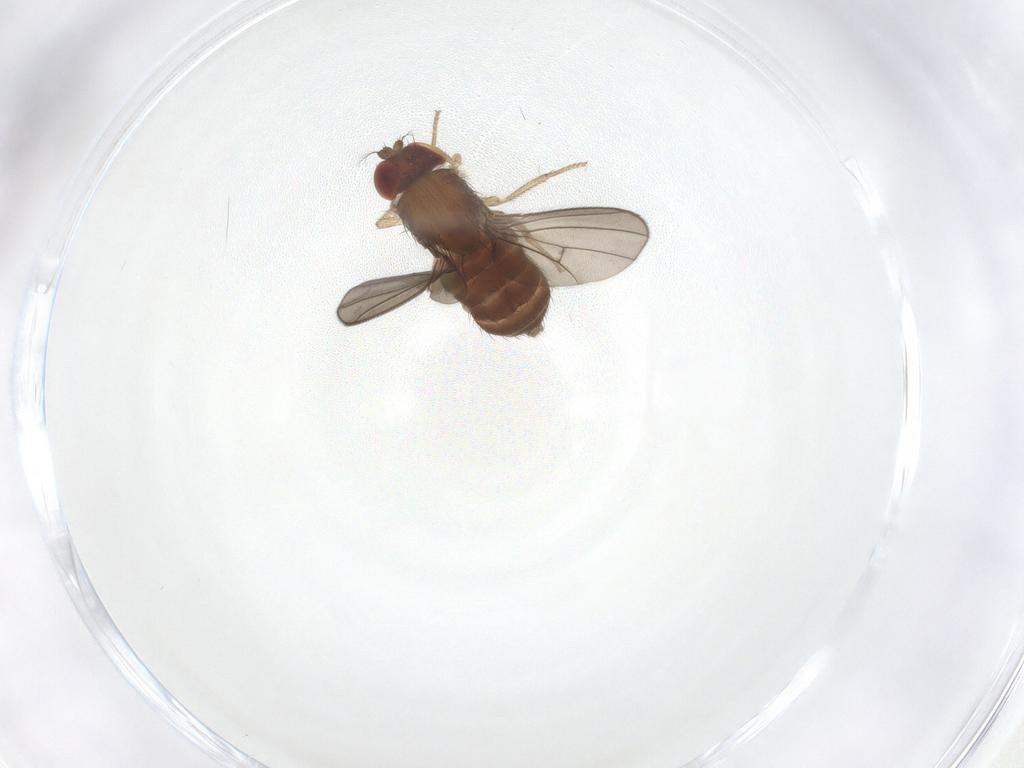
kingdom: Animalia
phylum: Arthropoda
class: Insecta
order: Diptera
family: Drosophilidae
